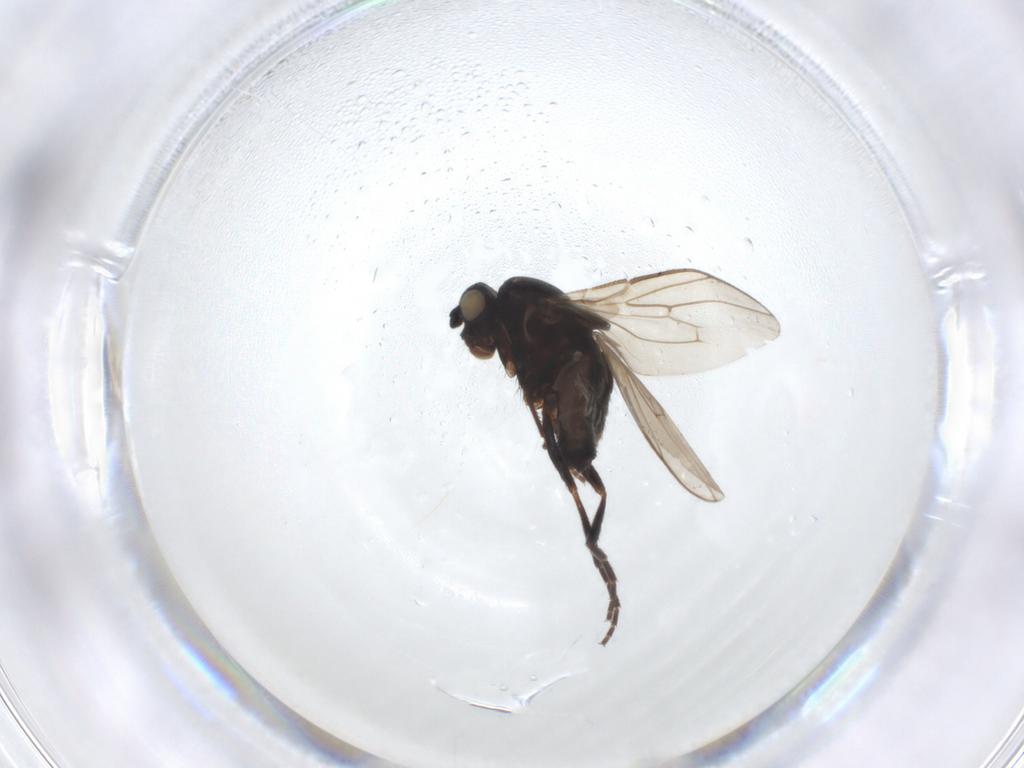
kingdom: Animalia
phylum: Arthropoda
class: Insecta
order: Diptera
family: Sphaeroceridae
